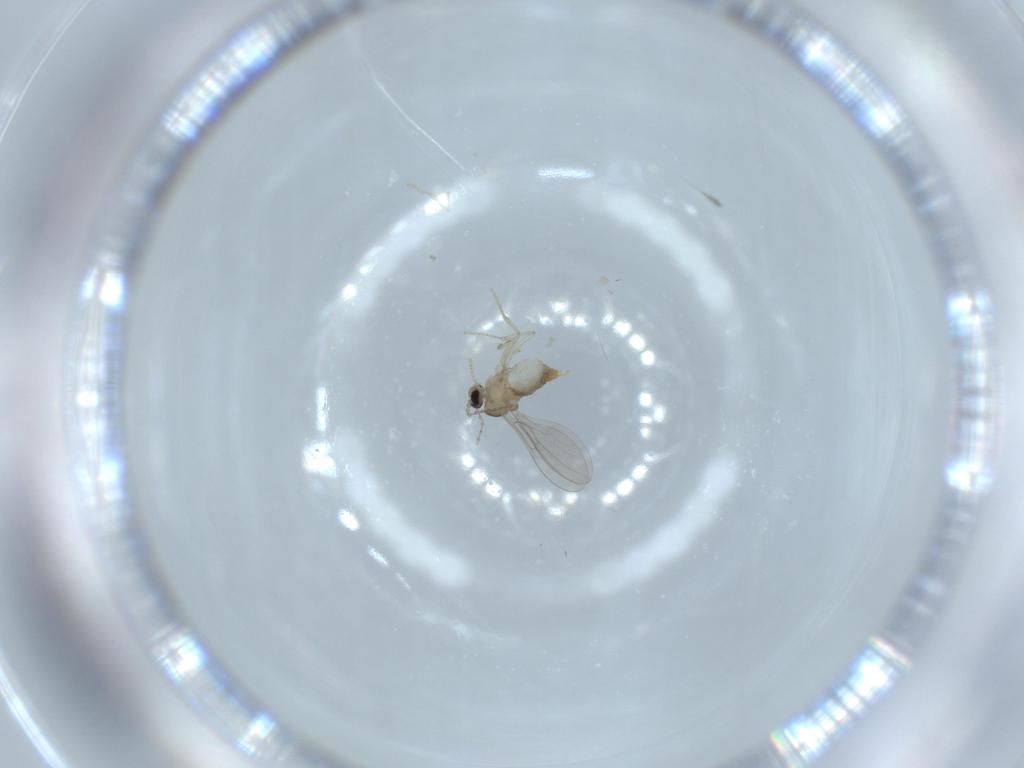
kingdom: Animalia
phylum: Arthropoda
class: Insecta
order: Diptera
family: Cecidomyiidae
